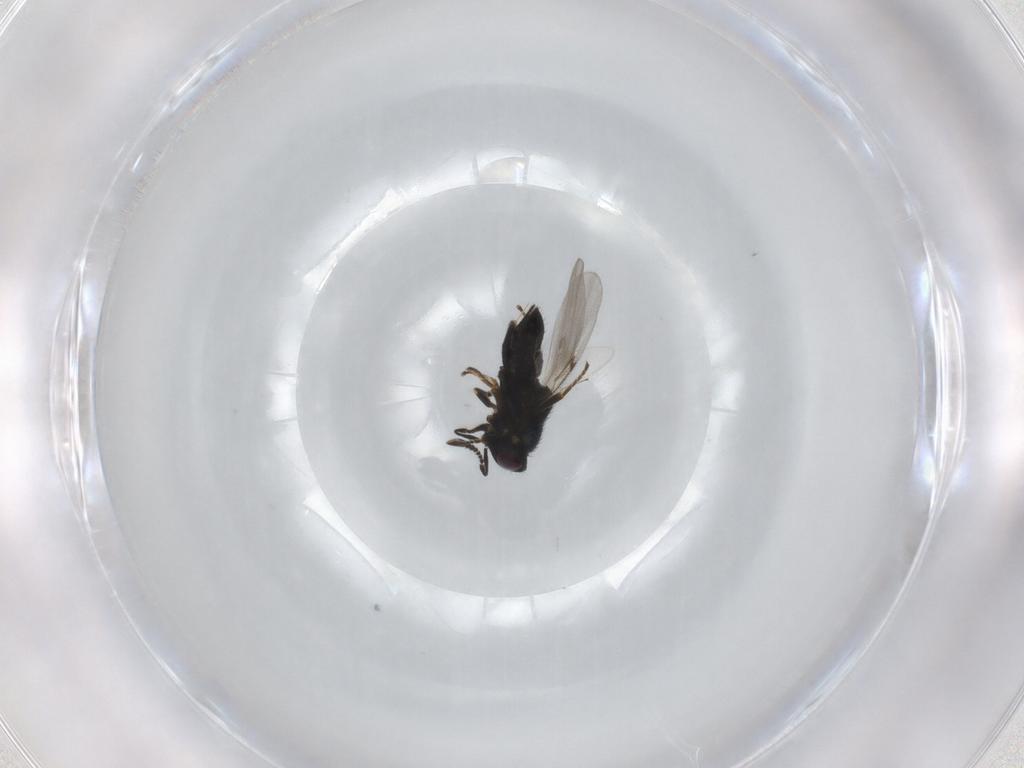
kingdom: Animalia
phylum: Arthropoda
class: Insecta
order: Hymenoptera
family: Encyrtidae
